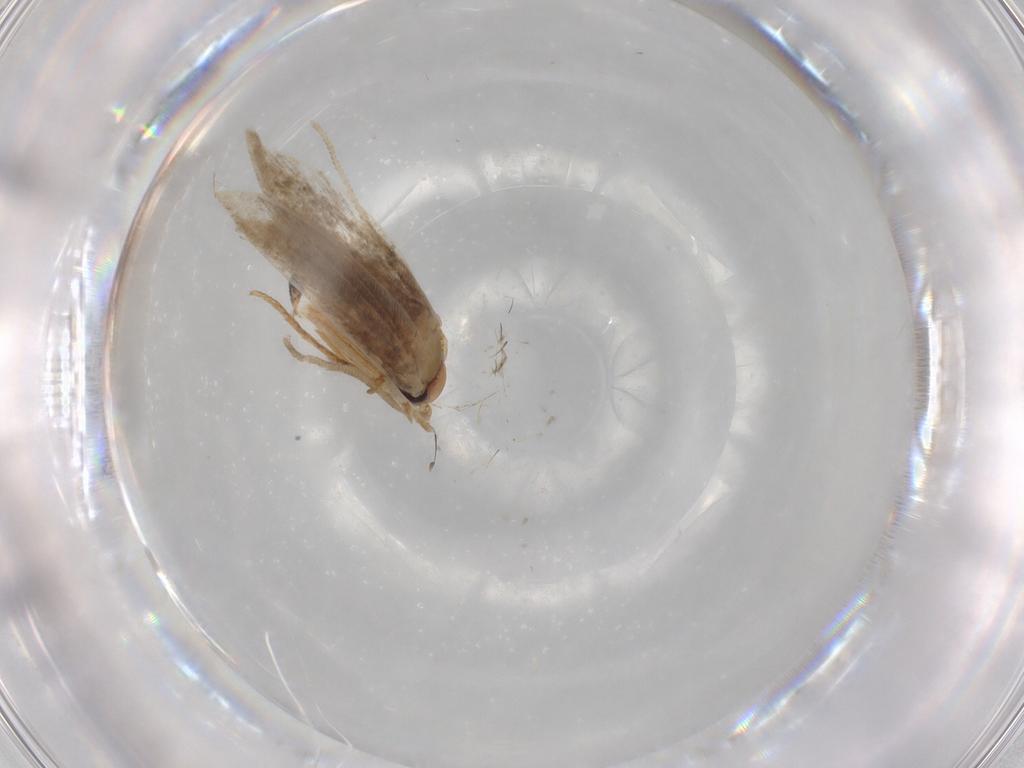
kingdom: Animalia
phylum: Arthropoda
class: Insecta
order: Lepidoptera
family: Cosmopterigidae
